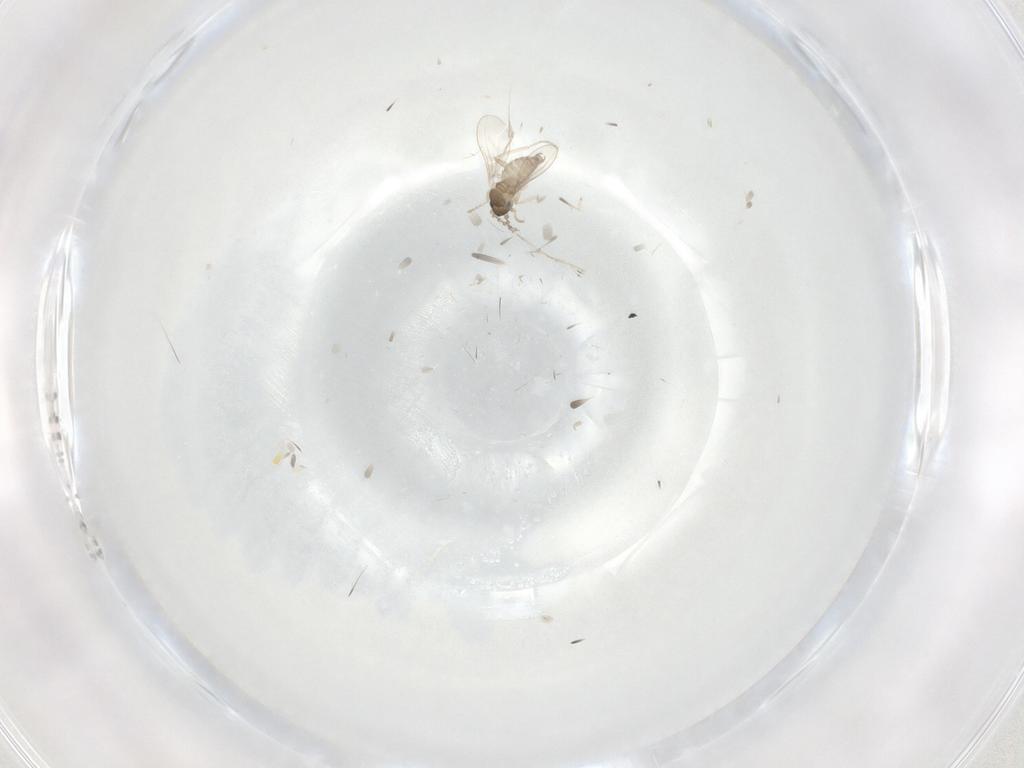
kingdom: Animalia
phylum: Arthropoda
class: Insecta
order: Diptera
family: Cecidomyiidae
